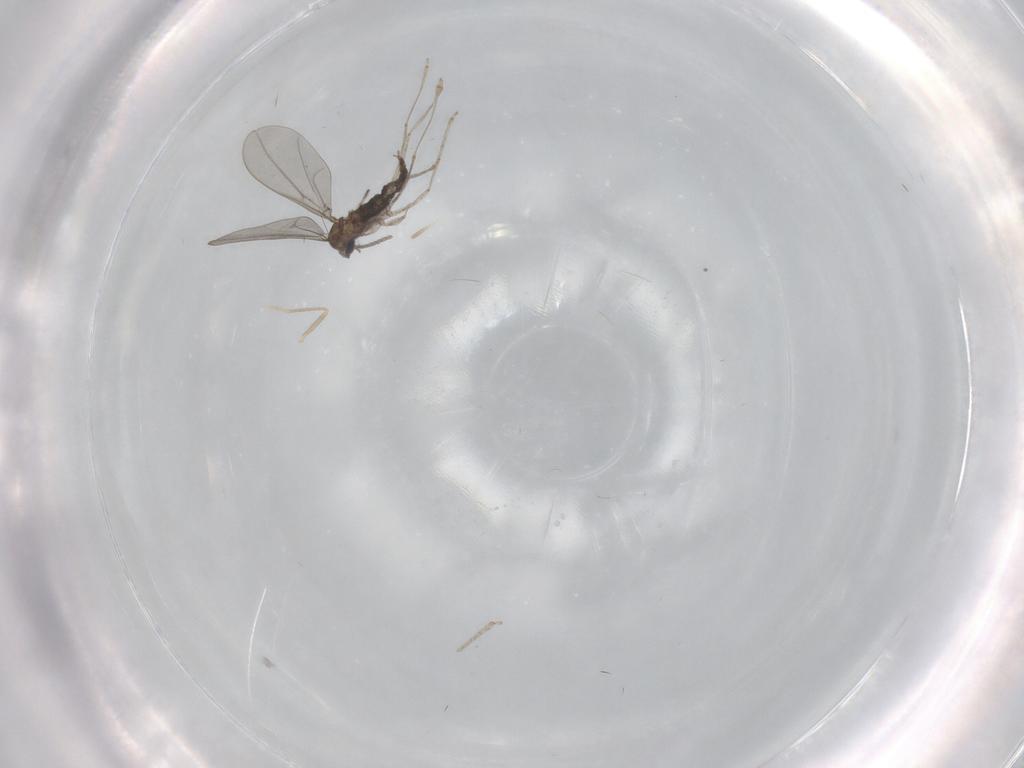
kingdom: Animalia
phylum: Arthropoda
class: Insecta
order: Diptera
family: Cecidomyiidae
